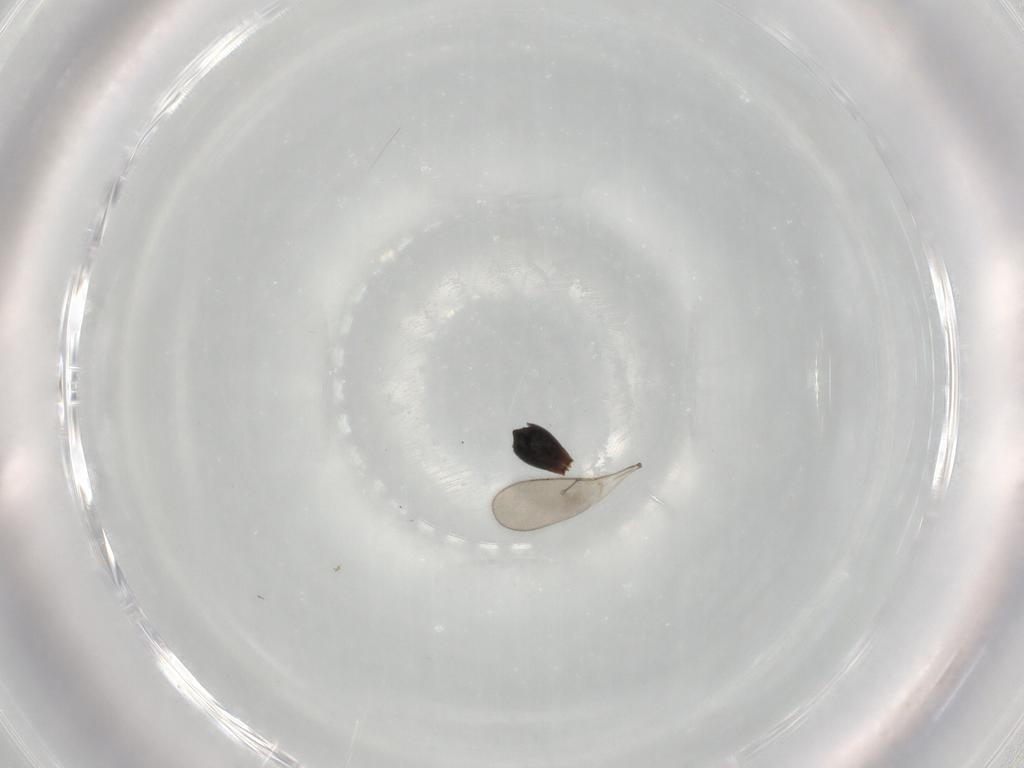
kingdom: Animalia
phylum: Arthropoda
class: Insecta
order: Hymenoptera
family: Scelionidae
